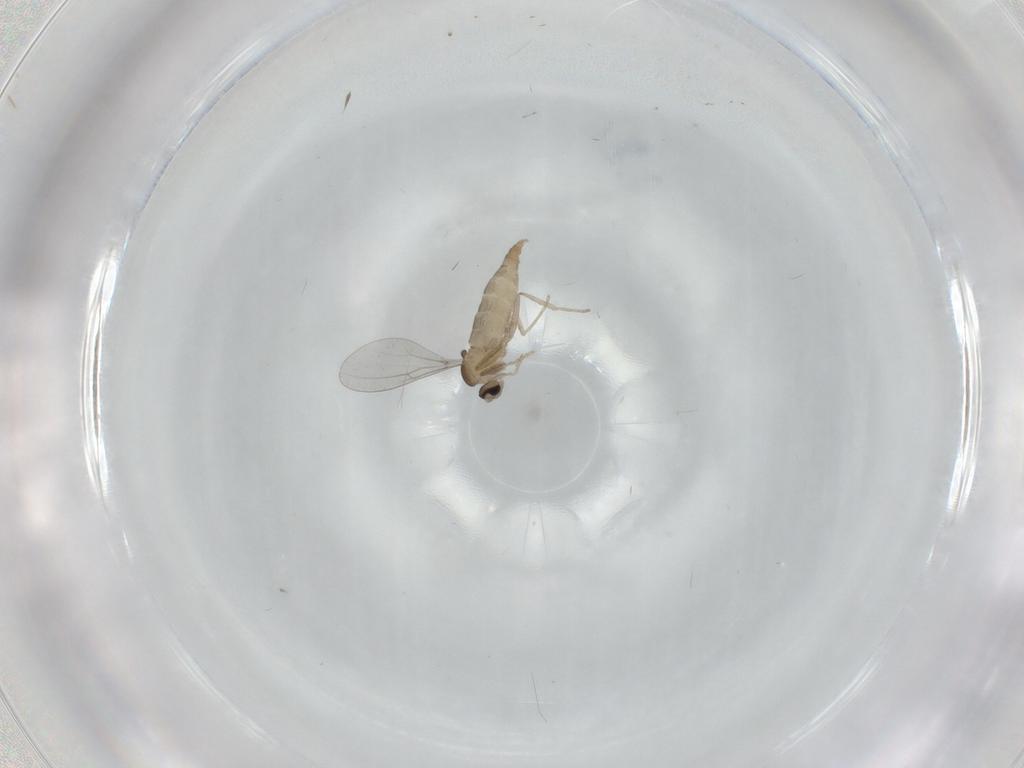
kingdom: Animalia
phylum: Arthropoda
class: Insecta
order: Diptera
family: Cecidomyiidae
